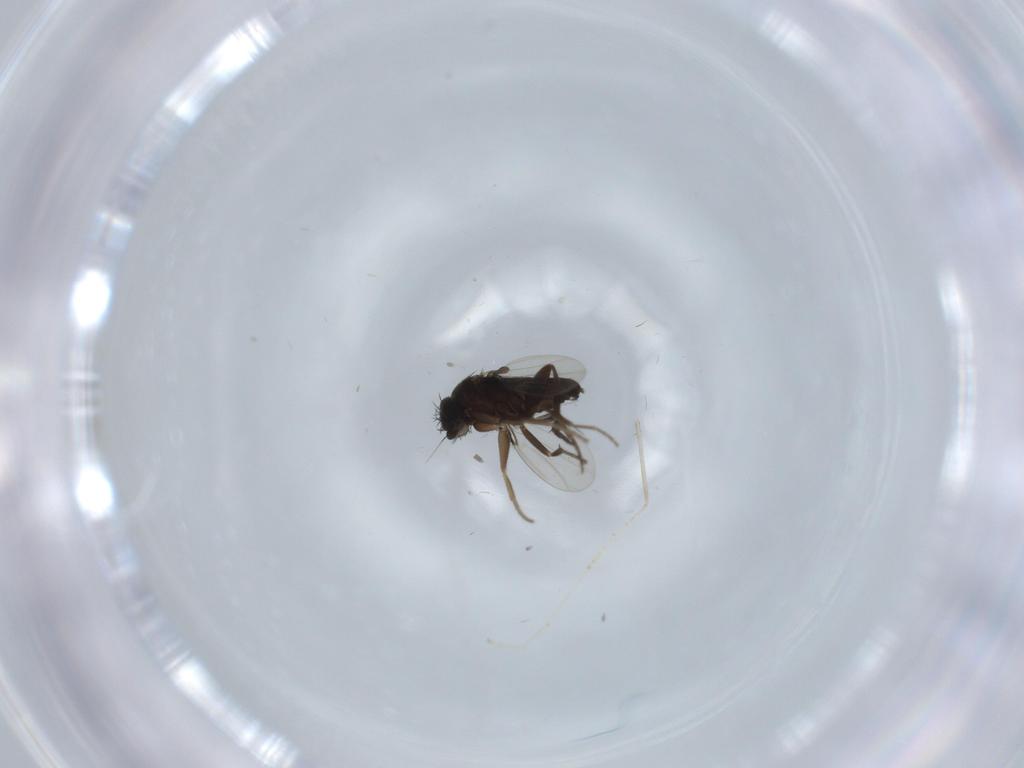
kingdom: Animalia
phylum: Arthropoda
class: Insecta
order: Diptera
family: Phoridae
